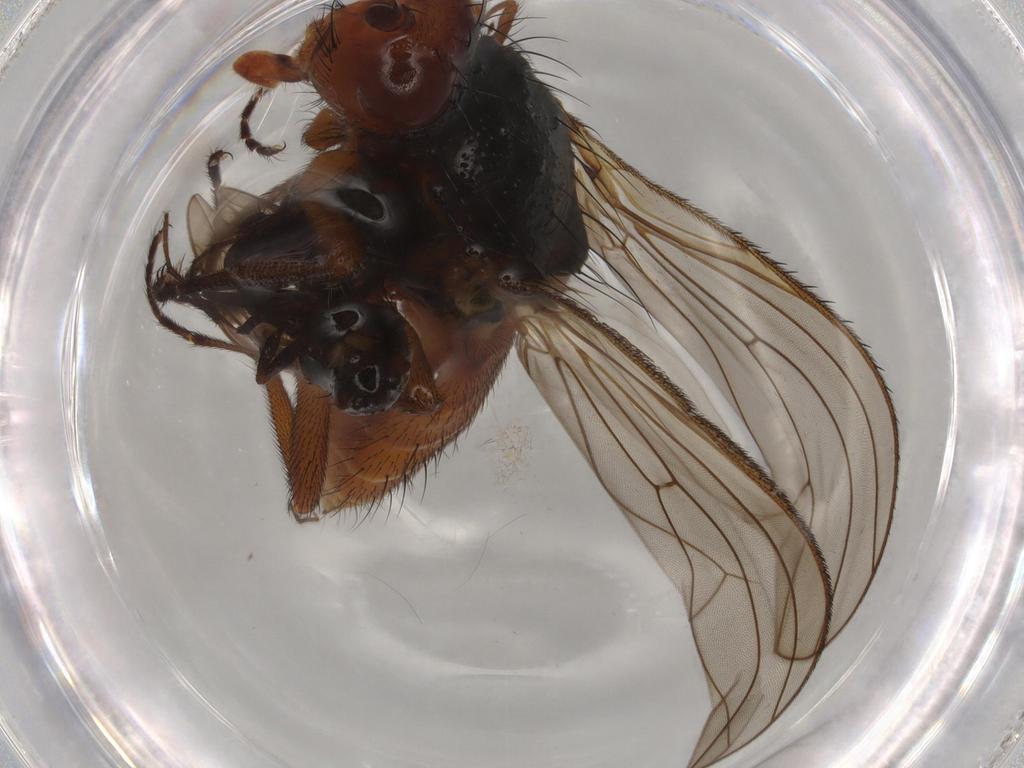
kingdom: Animalia
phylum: Arthropoda
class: Insecta
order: Diptera
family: Heleomyzidae
